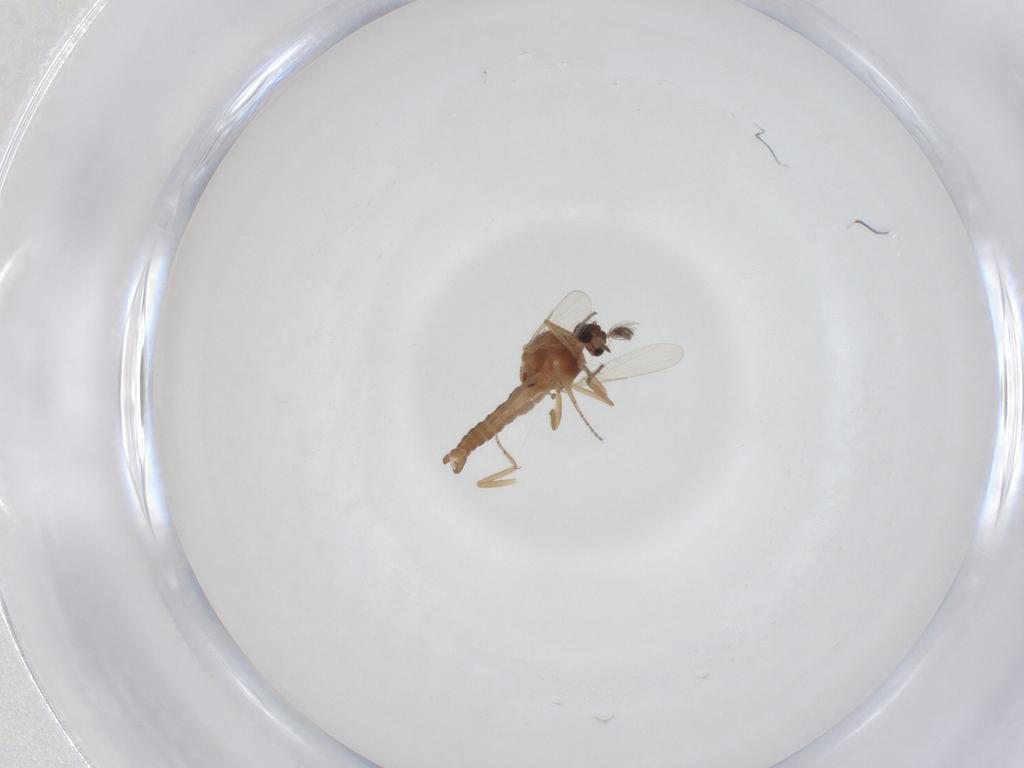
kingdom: Animalia
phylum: Arthropoda
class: Insecta
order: Diptera
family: Ceratopogonidae
